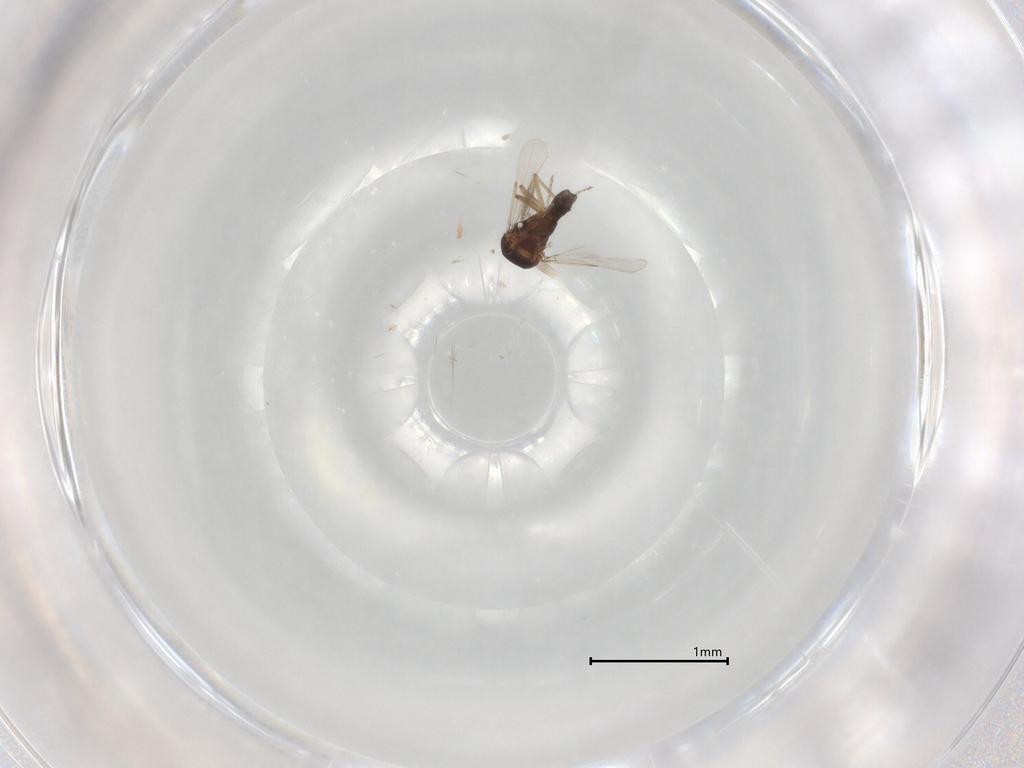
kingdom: Animalia
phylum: Arthropoda
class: Insecta
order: Diptera
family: Ceratopogonidae
